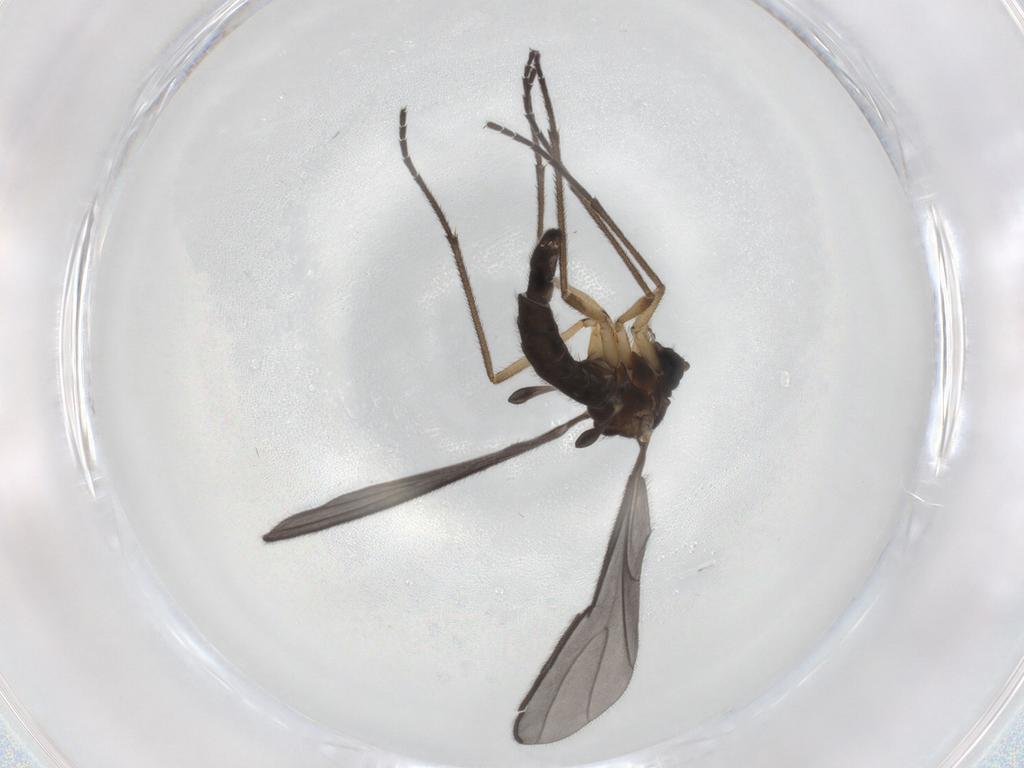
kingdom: Animalia
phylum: Arthropoda
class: Insecta
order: Diptera
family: Sciaridae
